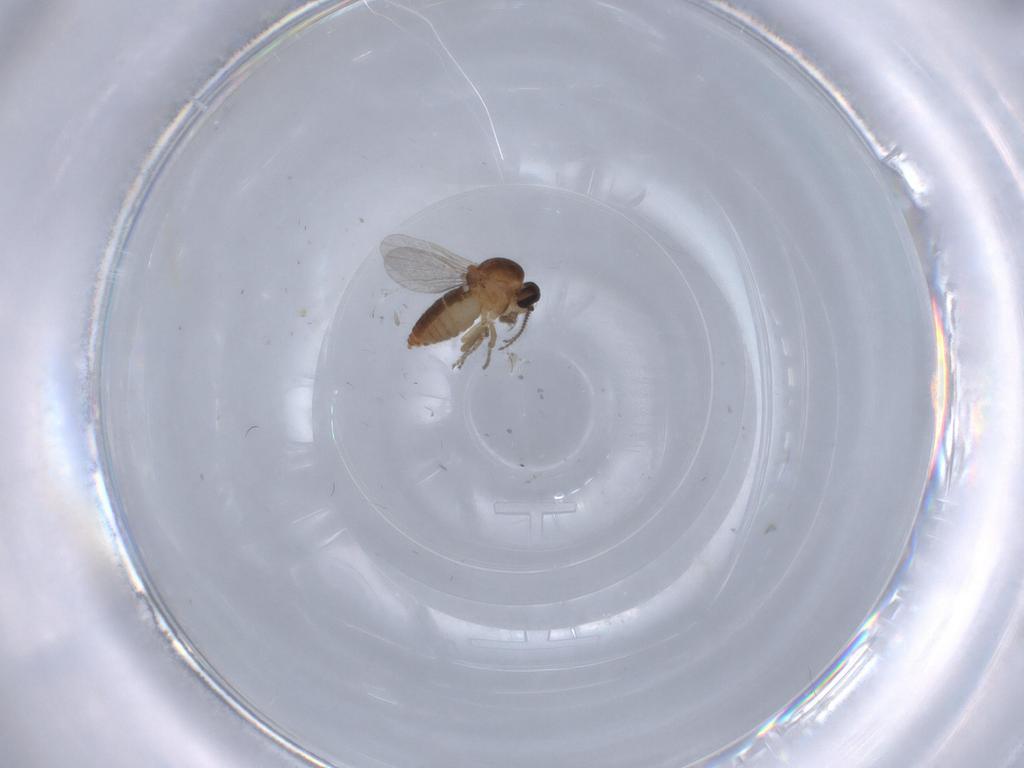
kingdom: Animalia
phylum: Arthropoda
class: Insecta
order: Diptera
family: Ceratopogonidae
